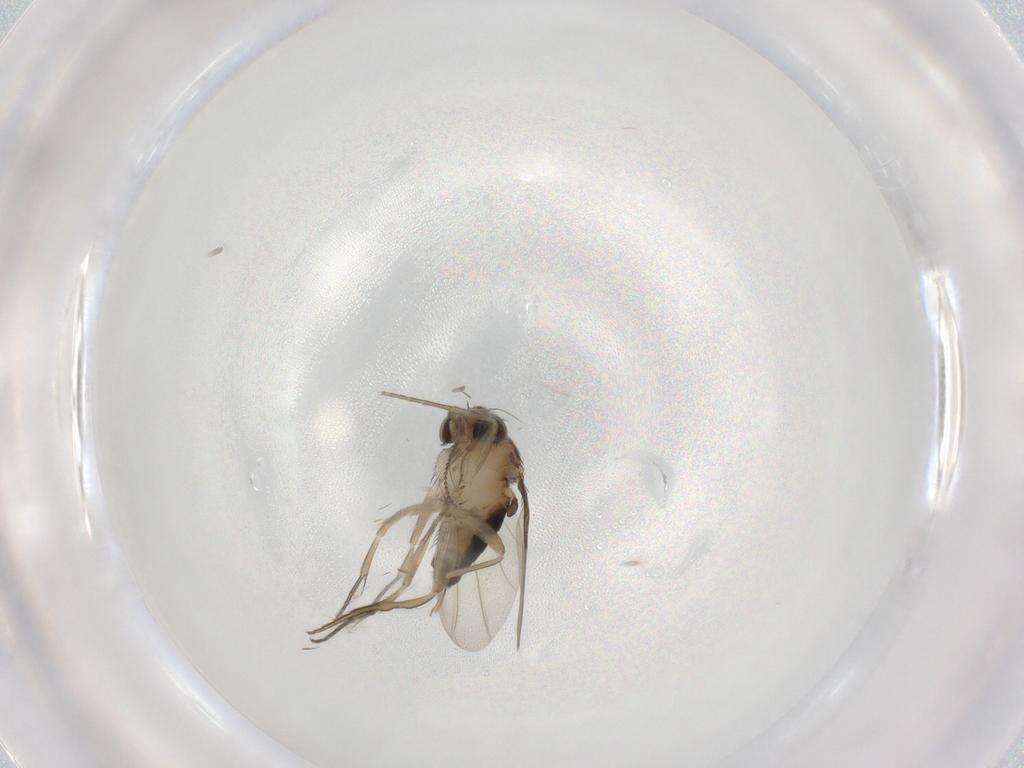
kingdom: Animalia
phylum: Arthropoda
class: Insecta
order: Diptera
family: Phoridae
